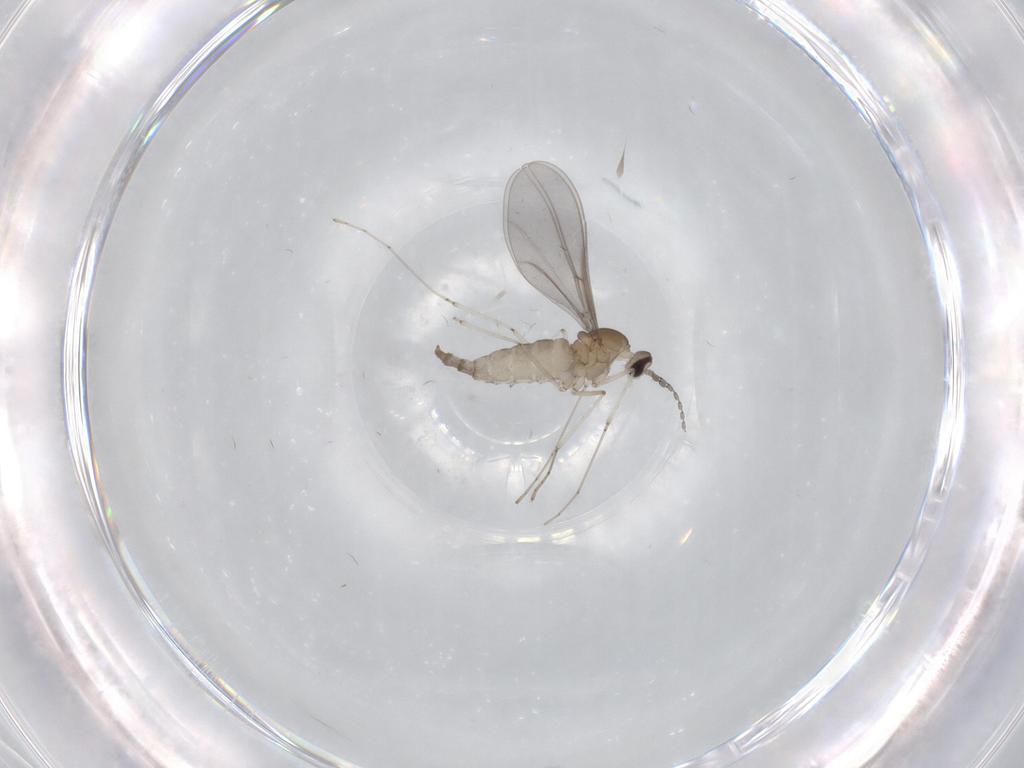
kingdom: Animalia
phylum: Arthropoda
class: Insecta
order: Diptera
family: Cecidomyiidae
